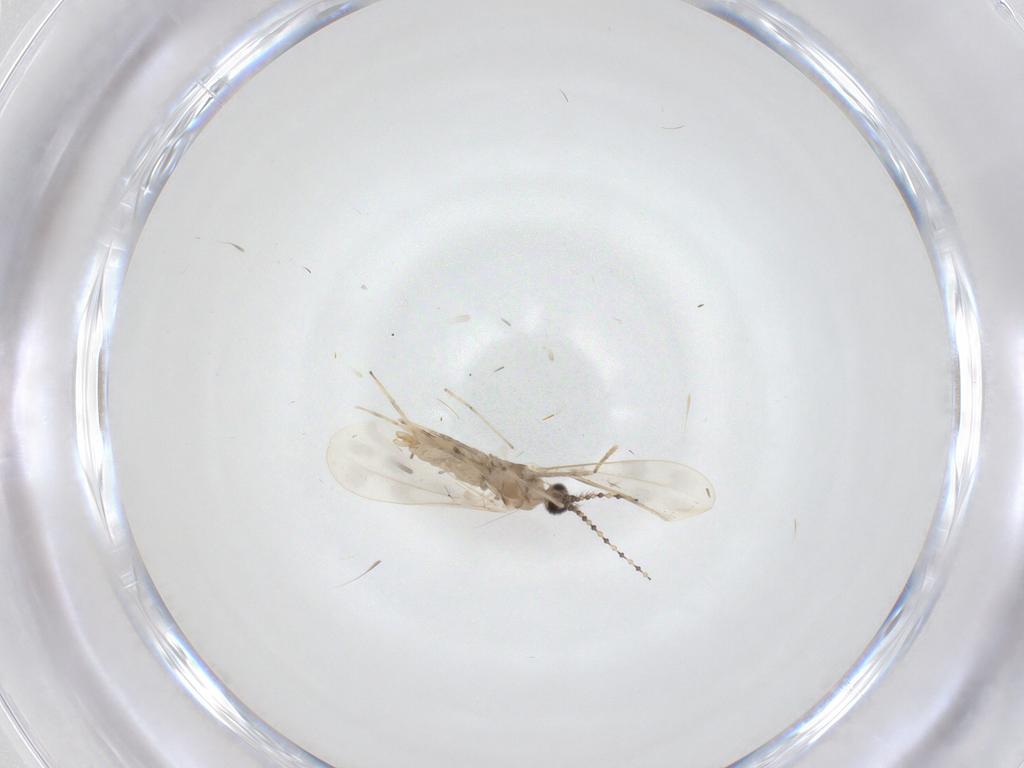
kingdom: Animalia
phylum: Arthropoda
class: Insecta
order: Diptera
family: Cecidomyiidae
